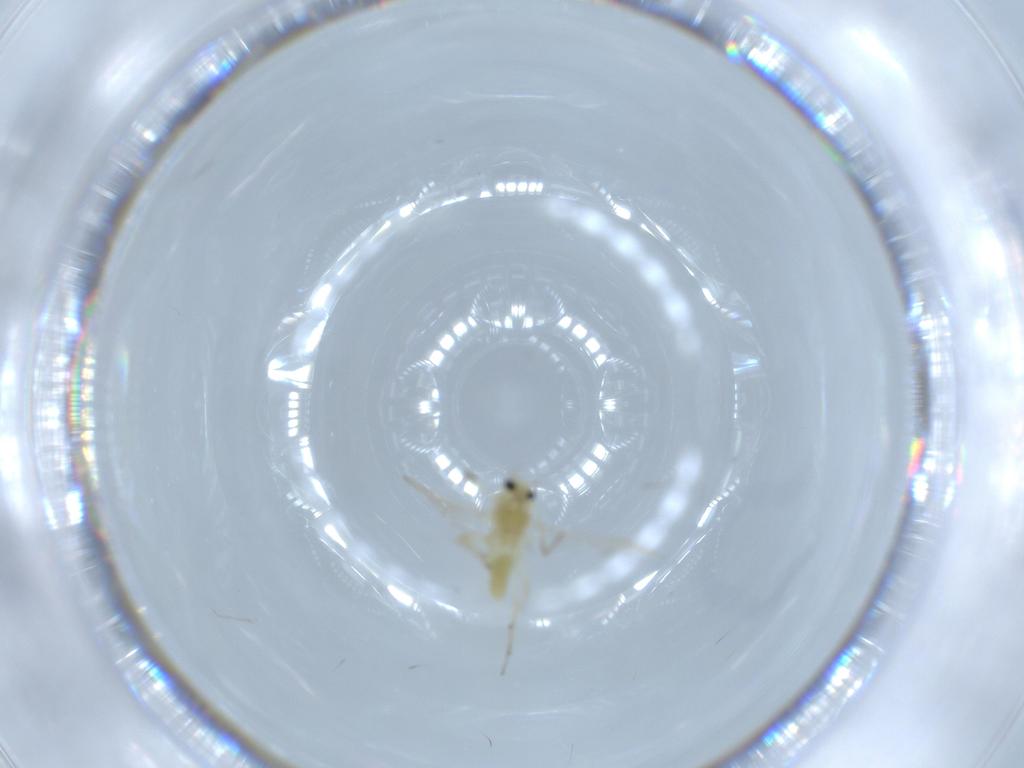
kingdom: Animalia
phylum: Arthropoda
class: Insecta
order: Diptera
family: Chironomidae
